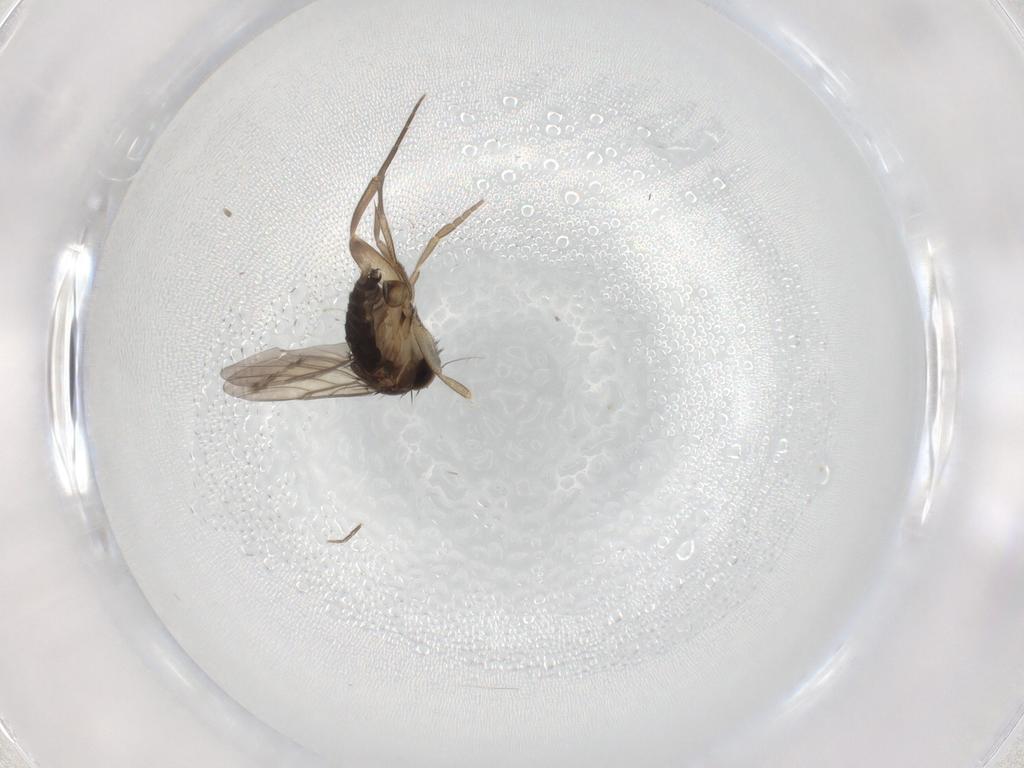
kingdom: Animalia
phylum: Arthropoda
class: Insecta
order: Diptera
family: Phoridae
